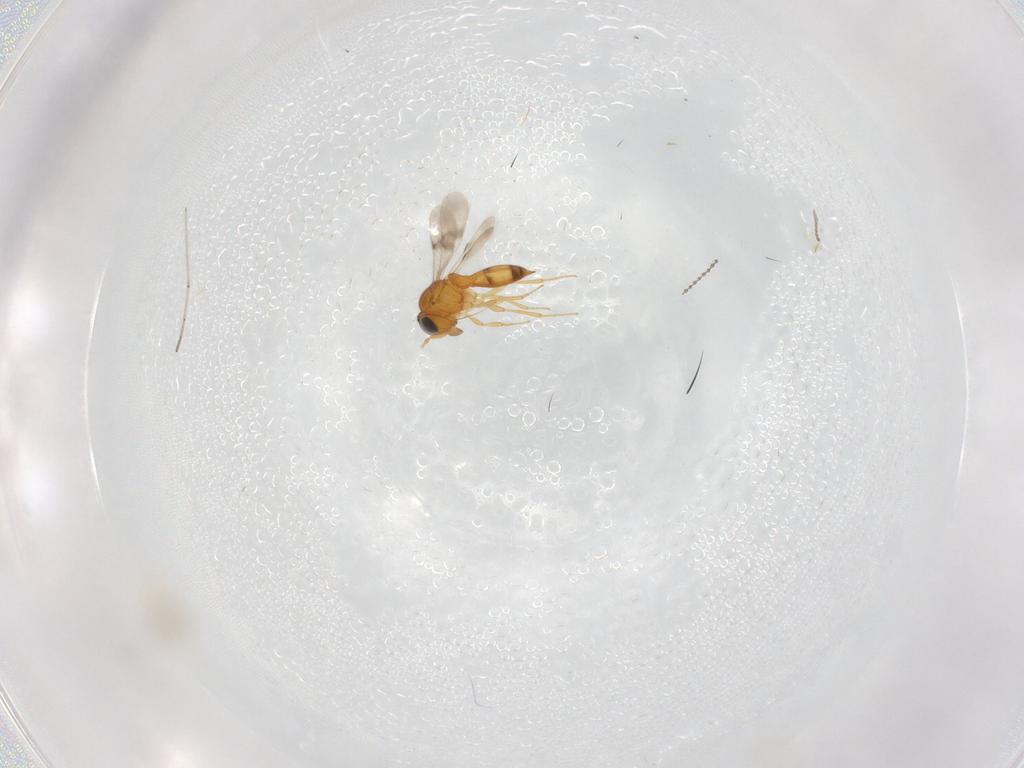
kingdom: Animalia
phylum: Arthropoda
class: Insecta
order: Hymenoptera
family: Scelionidae
